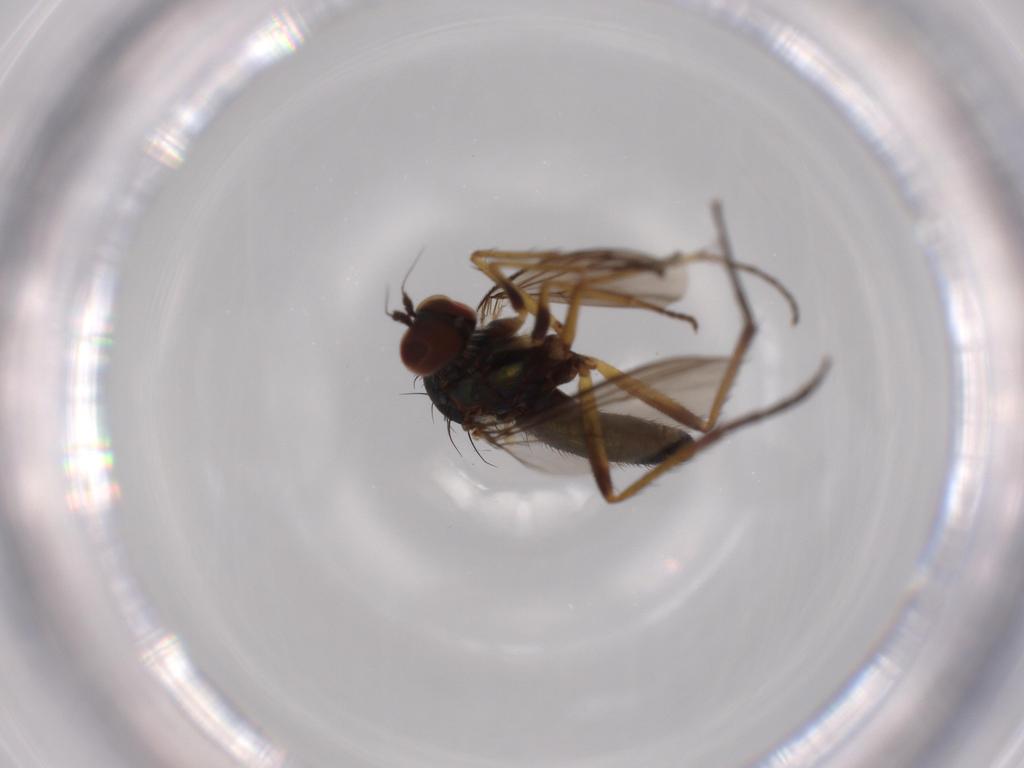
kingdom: Animalia
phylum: Arthropoda
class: Insecta
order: Diptera
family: Dolichopodidae
